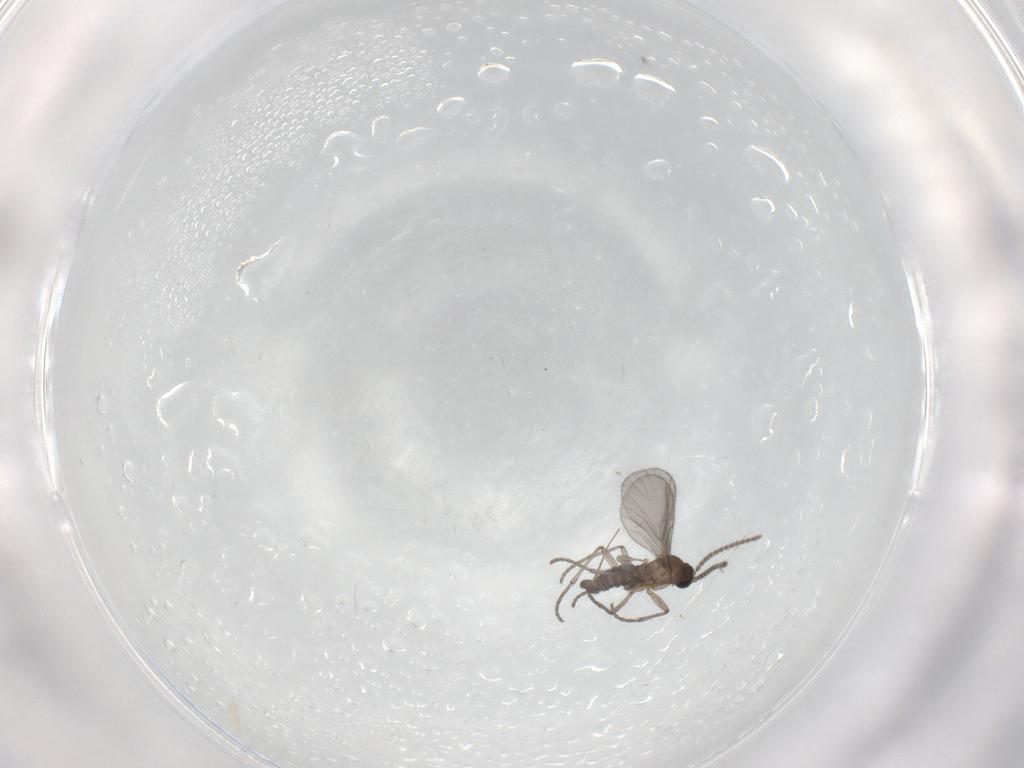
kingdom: Animalia
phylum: Arthropoda
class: Insecta
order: Diptera
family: Sciaridae
